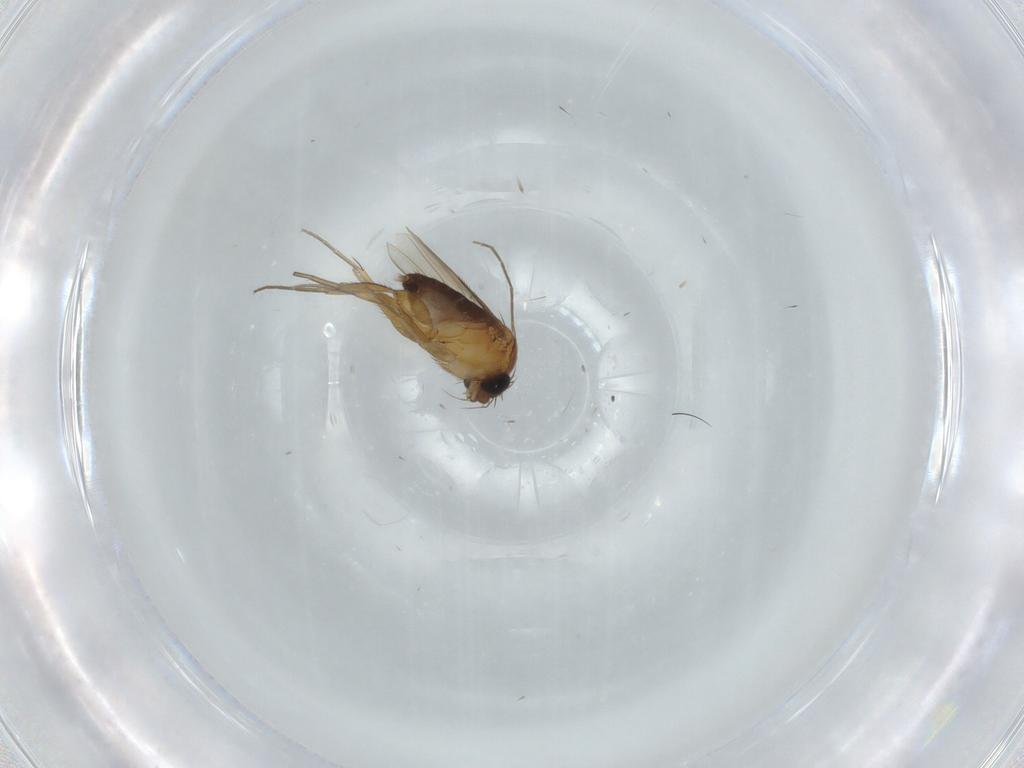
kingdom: Animalia
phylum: Arthropoda
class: Insecta
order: Diptera
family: Phoridae
